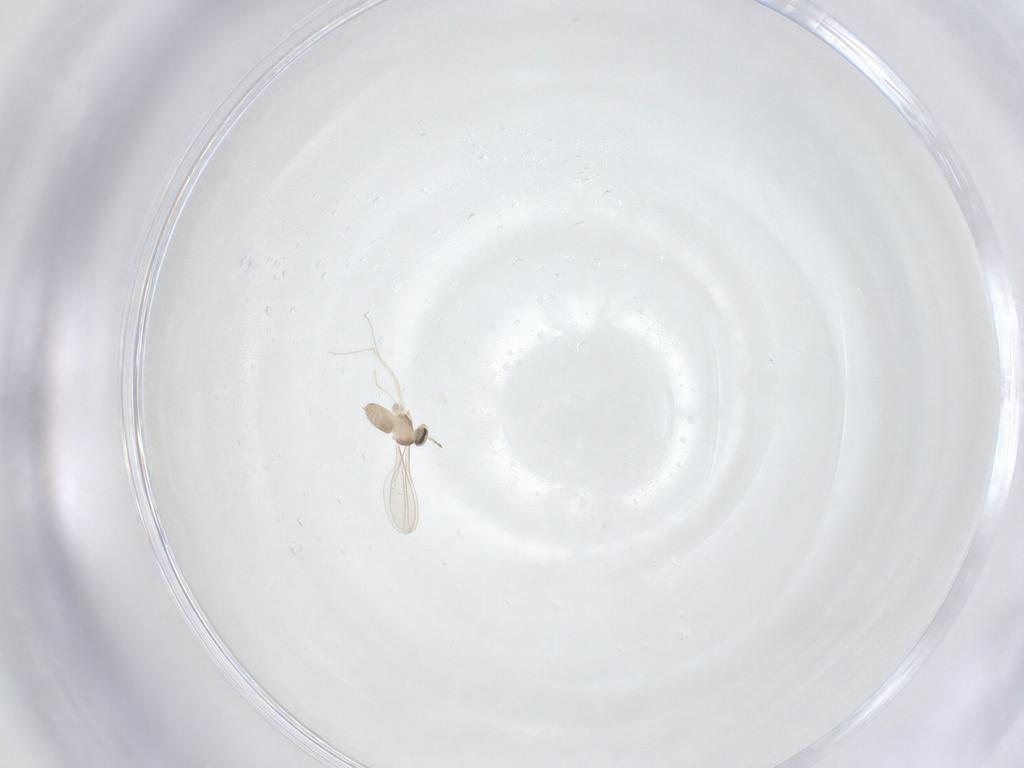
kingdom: Animalia
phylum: Arthropoda
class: Insecta
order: Diptera
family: Cecidomyiidae
